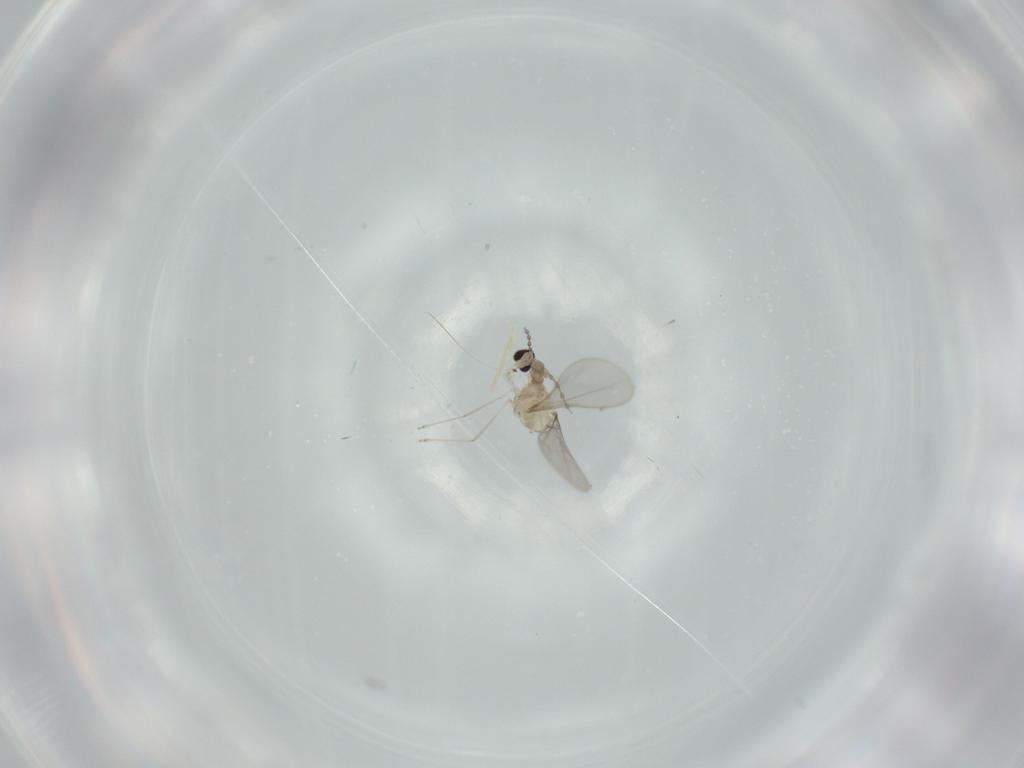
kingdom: Animalia
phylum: Arthropoda
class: Insecta
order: Diptera
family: Cecidomyiidae
